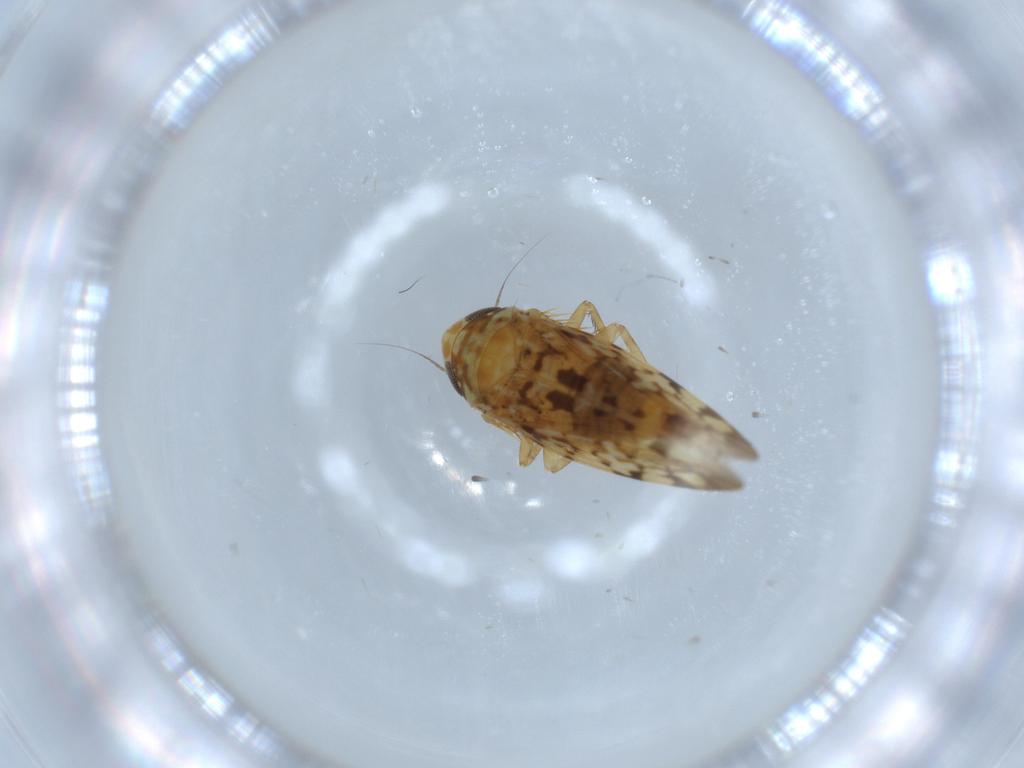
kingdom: Animalia
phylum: Arthropoda
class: Insecta
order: Hemiptera
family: Cicadellidae
